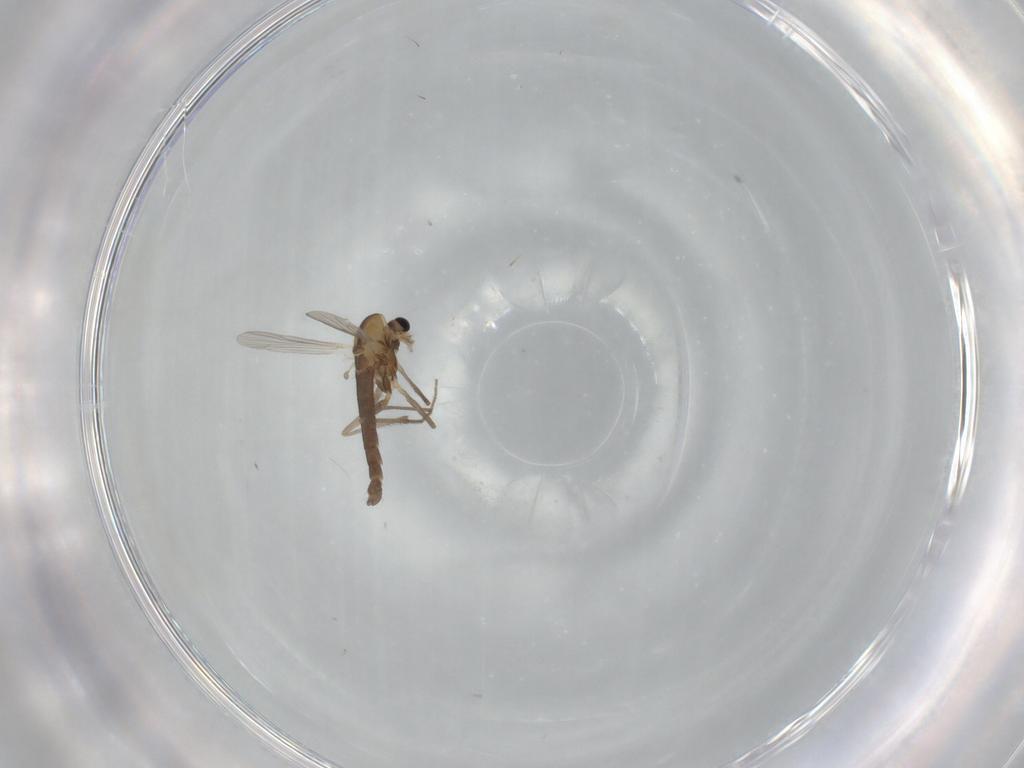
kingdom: Animalia
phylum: Arthropoda
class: Insecta
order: Diptera
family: Chironomidae
